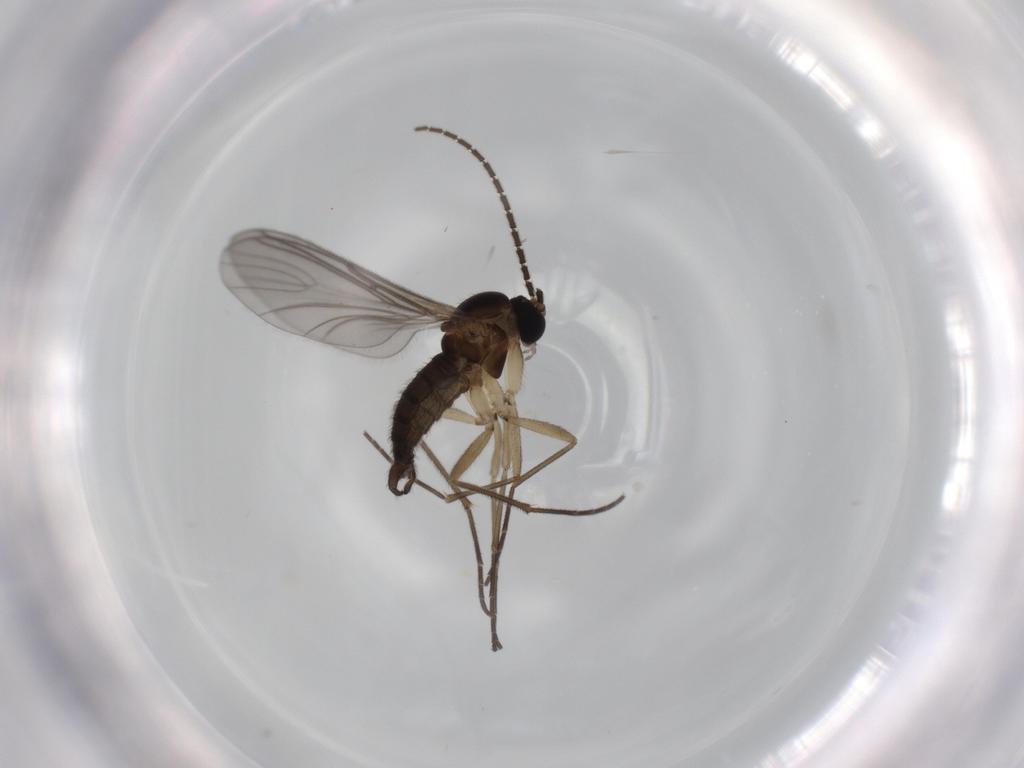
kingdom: Animalia
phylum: Arthropoda
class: Insecta
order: Diptera
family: Sciaridae
